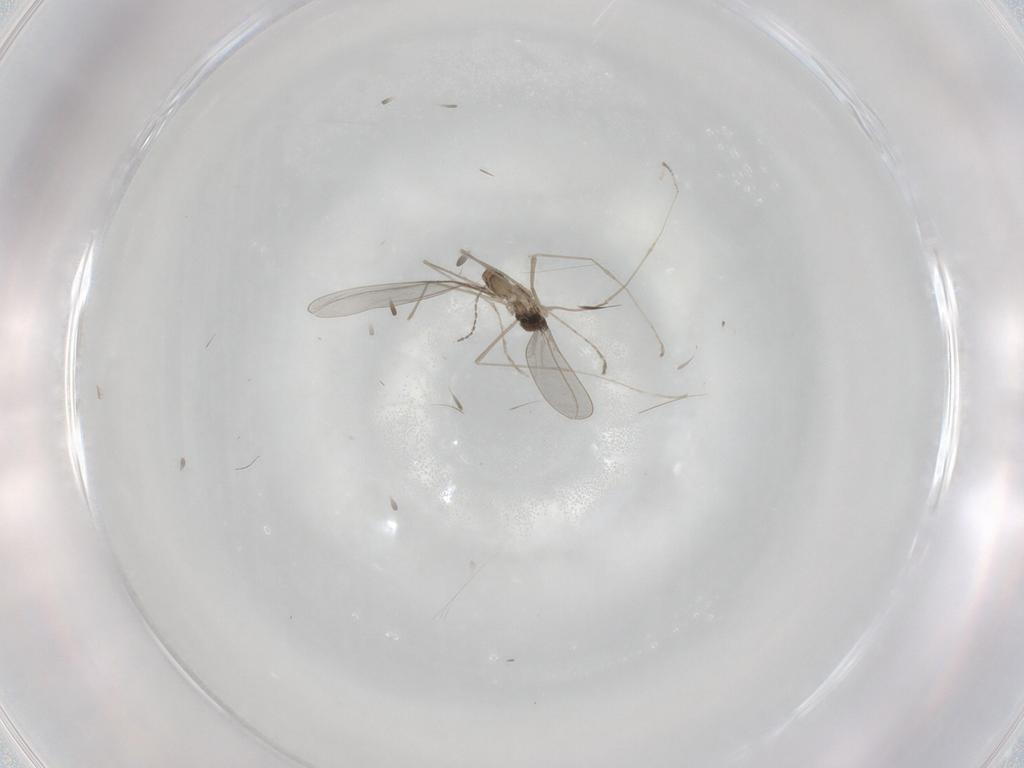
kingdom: Animalia
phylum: Arthropoda
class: Insecta
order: Diptera
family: Cecidomyiidae
